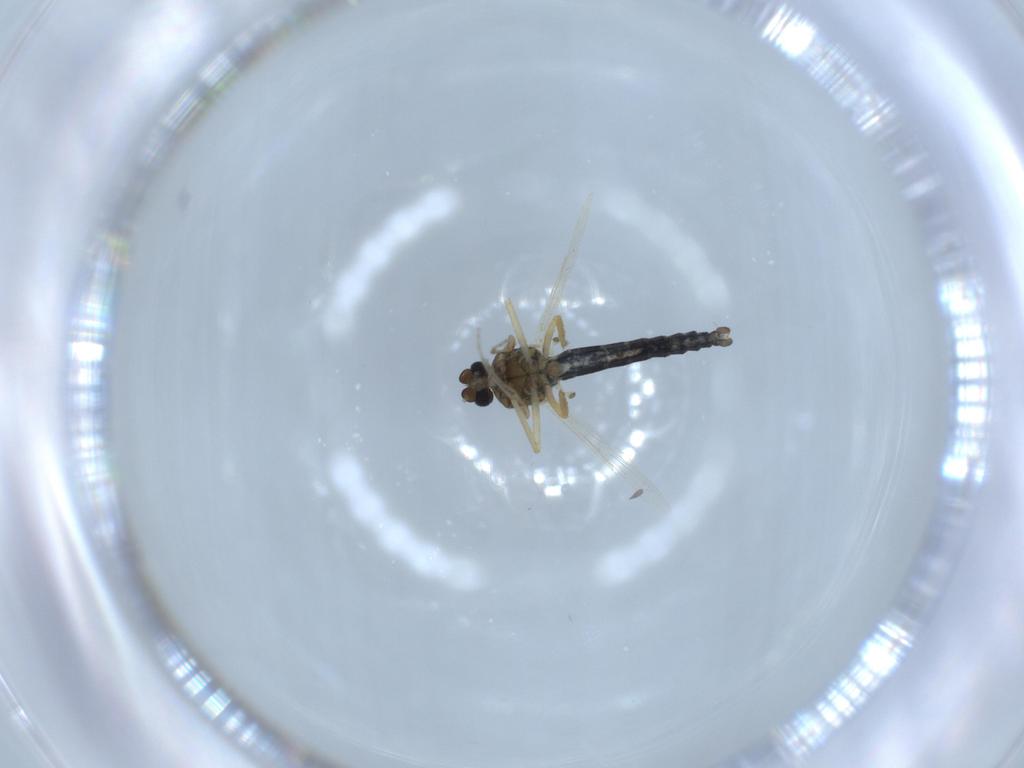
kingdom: Animalia
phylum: Arthropoda
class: Insecta
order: Diptera
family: Ceratopogonidae
